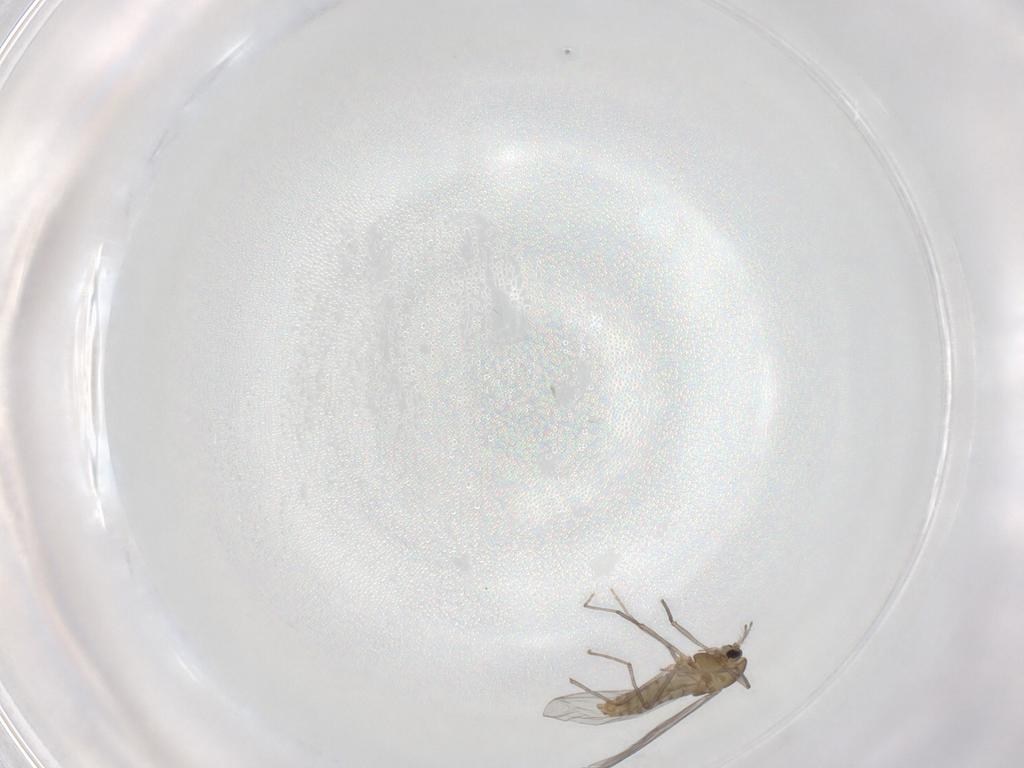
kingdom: Animalia
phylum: Arthropoda
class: Insecta
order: Diptera
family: Chironomidae
